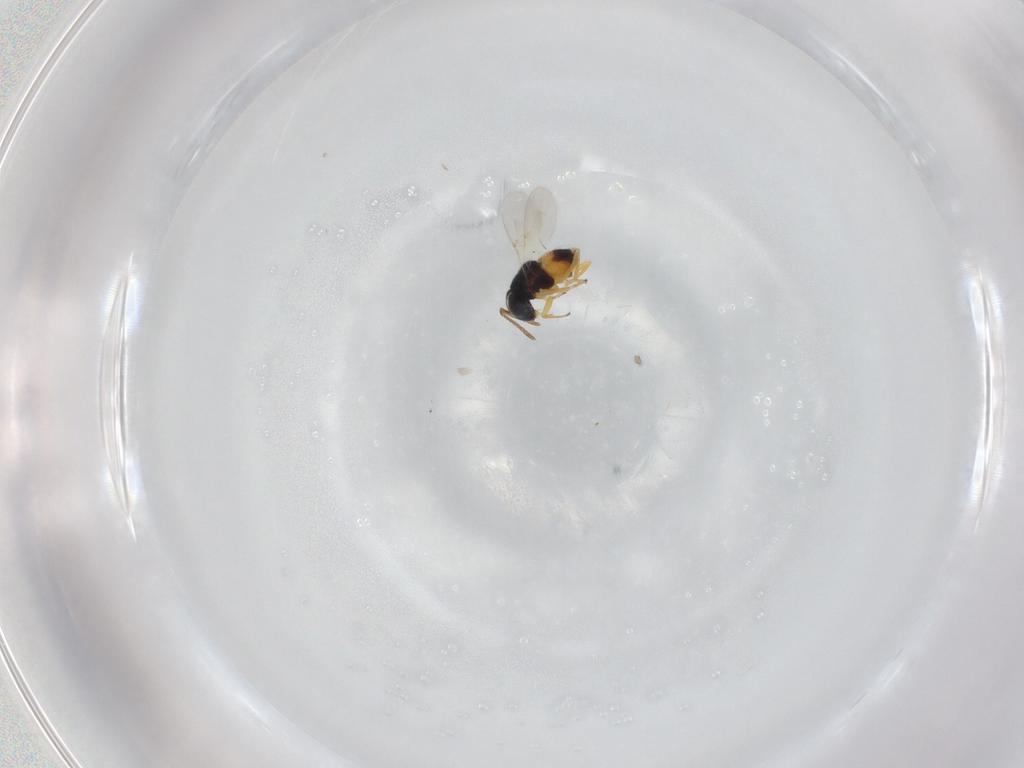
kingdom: Animalia
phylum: Arthropoda
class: Insecta
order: Hymenoptera
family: Encyrtidae
